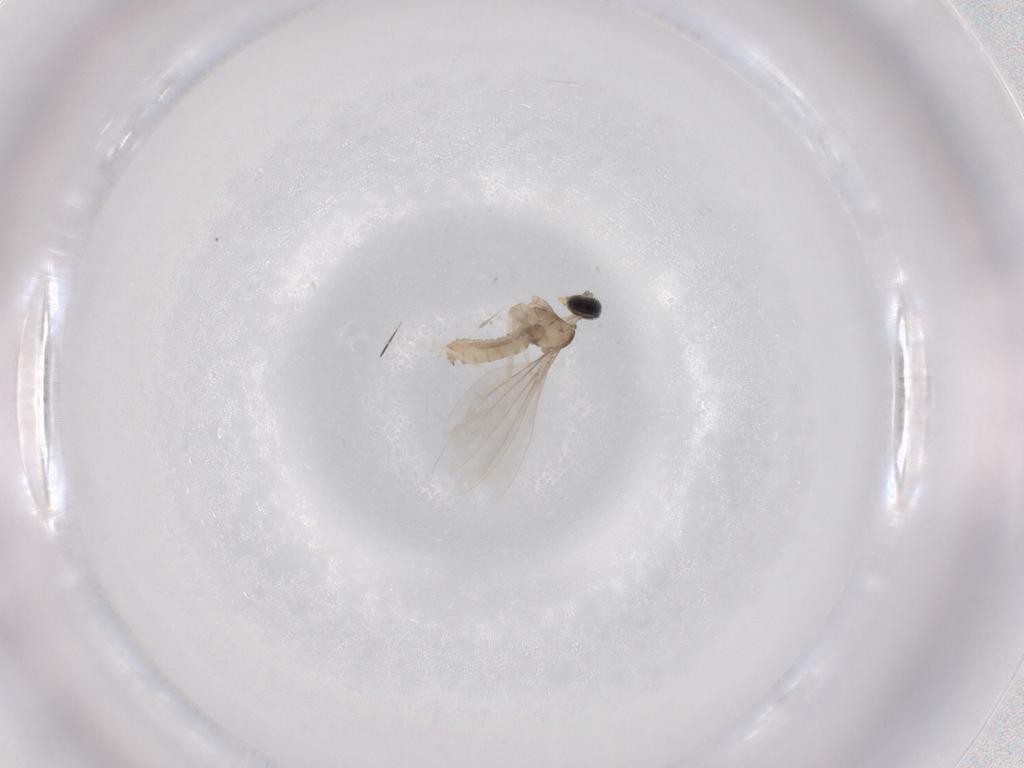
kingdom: Animalia
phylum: Arthropoda
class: Insecta
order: Diptera
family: Cecidomyiidae
